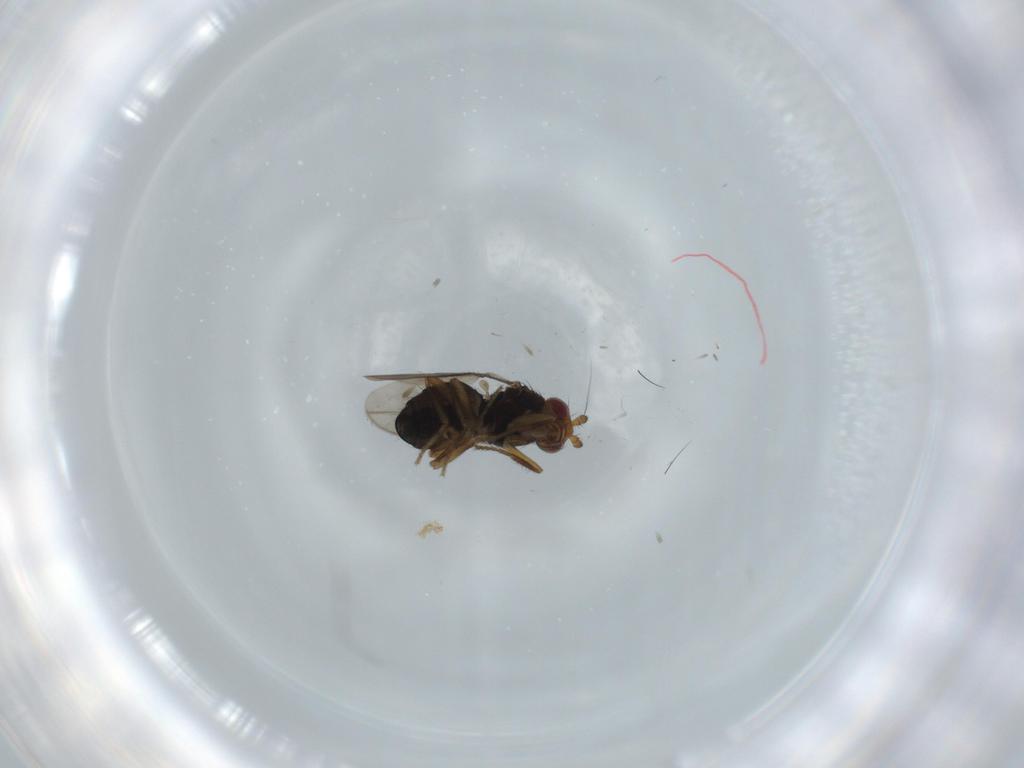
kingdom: Animalia
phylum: Arthropoda
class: Insecta
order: Diptera
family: Sphaeroceridae
